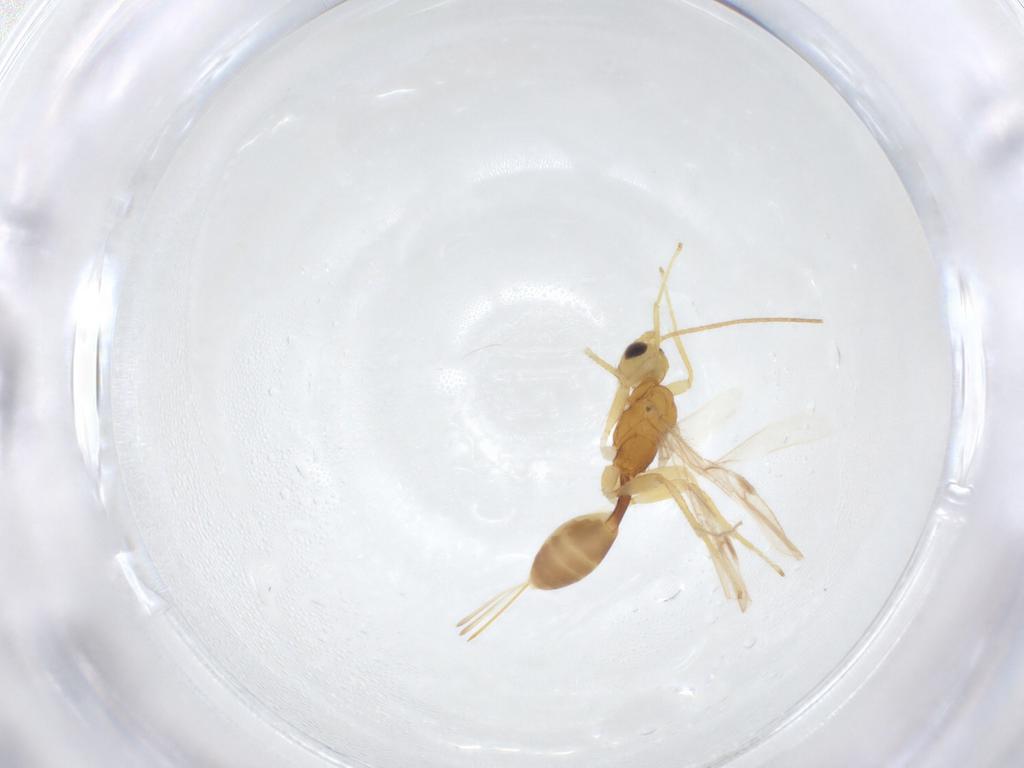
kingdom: Animalia
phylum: Arthropoda
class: Insecta
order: Hymenoptera
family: Braconidae
